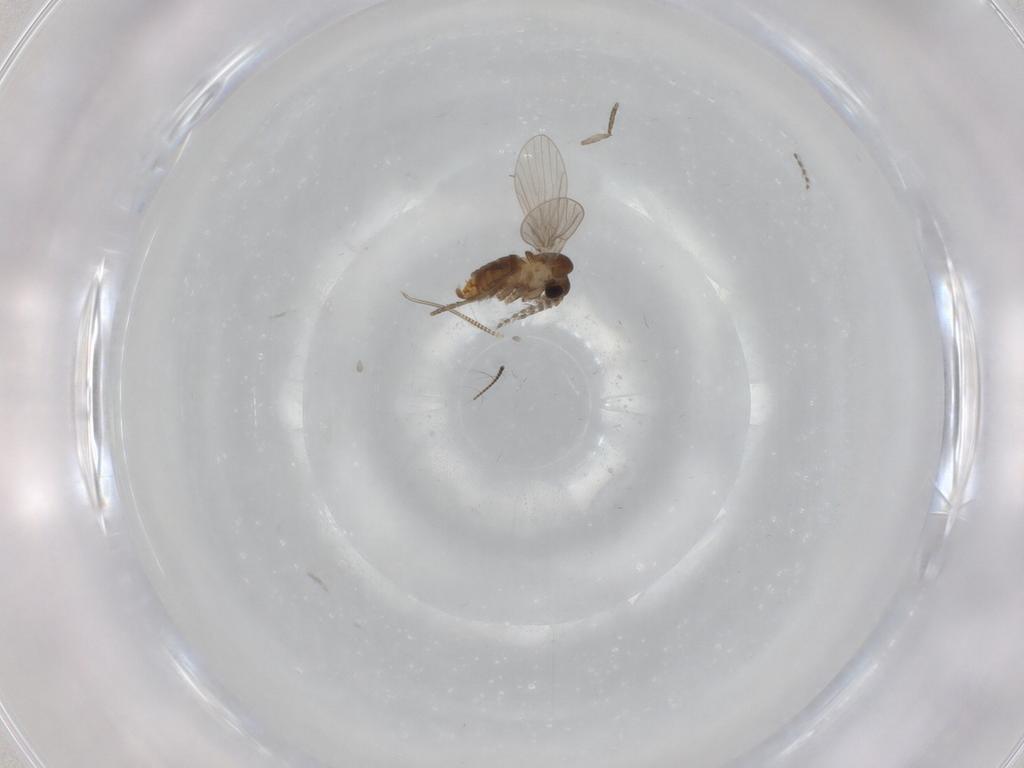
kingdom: Animalia
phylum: Arthropoda
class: Insecta
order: Diptera
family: Chironomidae
